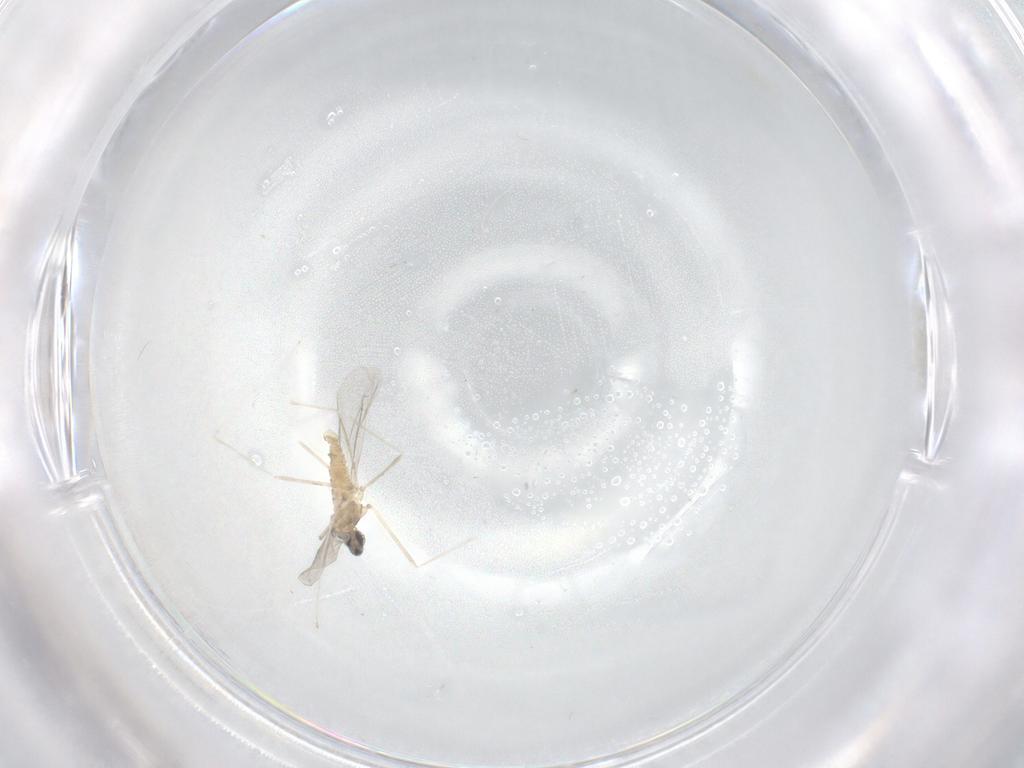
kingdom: Animalia
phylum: Arthropoda
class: Insecta
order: Diptera
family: Cecidomyiidae
